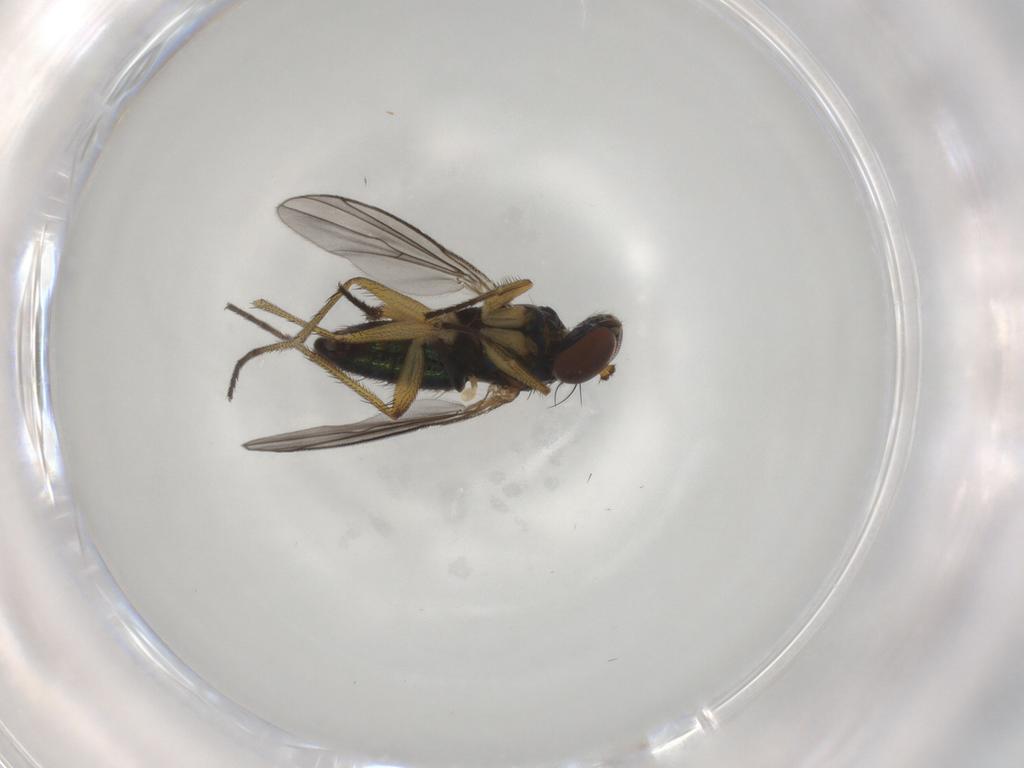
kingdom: Animalia
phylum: Arthropoda
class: Insecta
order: Diptera
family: Dolichopodidae
